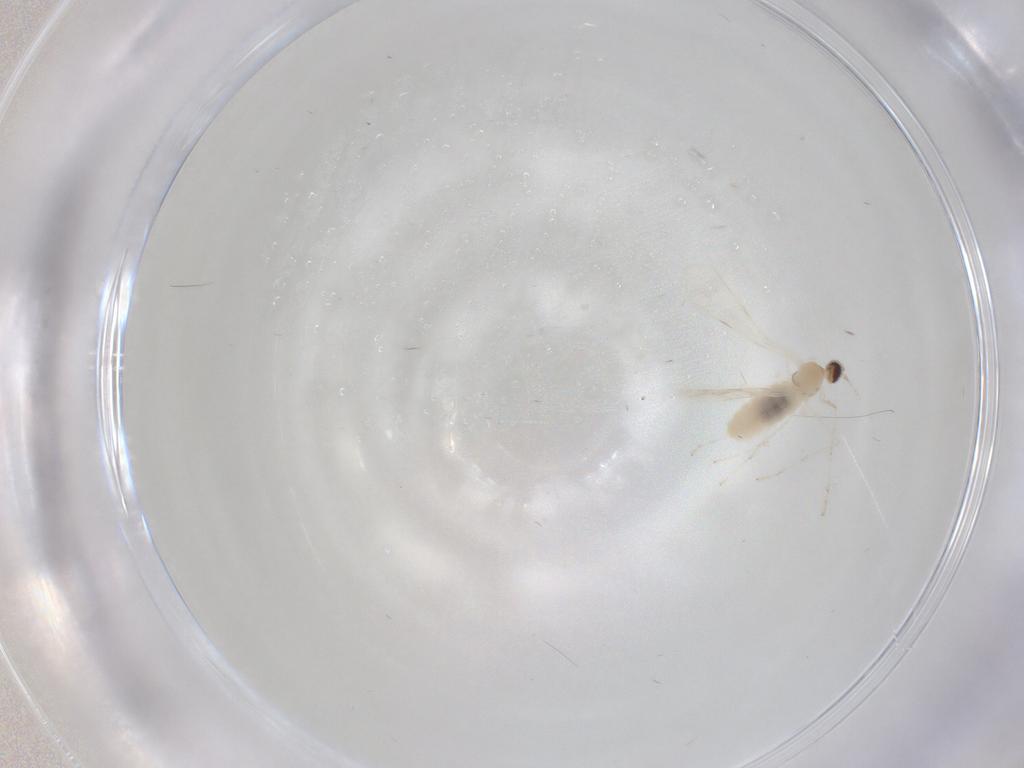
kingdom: Animalia
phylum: Arthropoda
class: Insecta
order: Diptera
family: Cecidomyiidae
